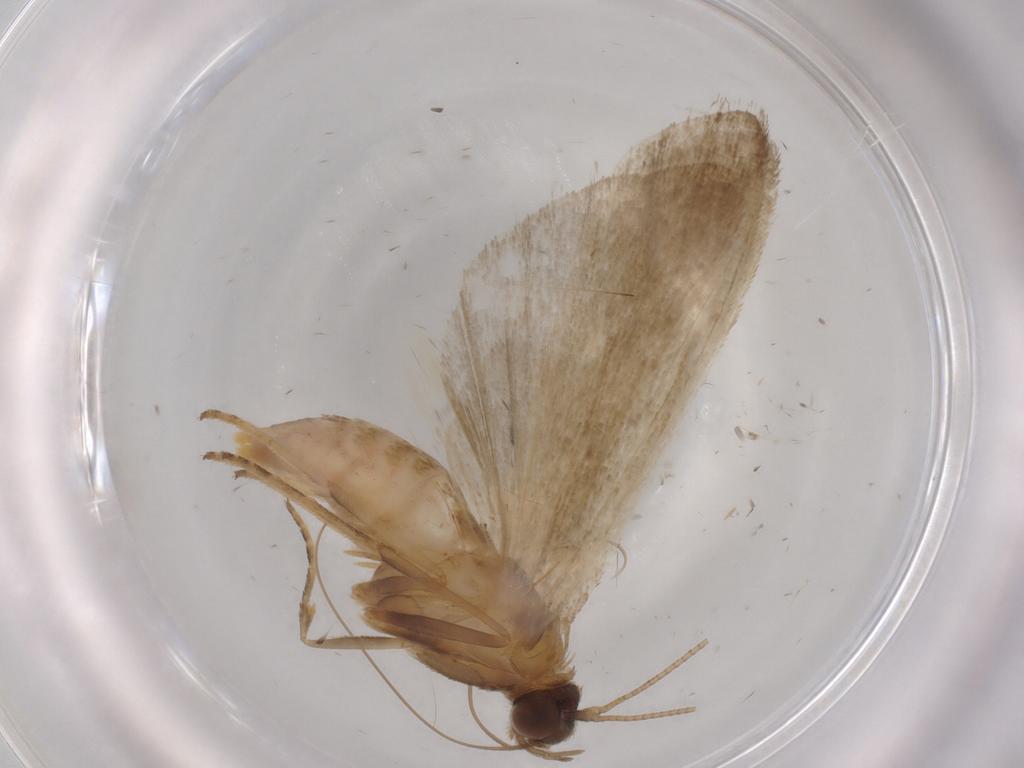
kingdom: Animalia
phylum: Arthropoda
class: Insecta
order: Lepidoptera
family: Noctuidae
